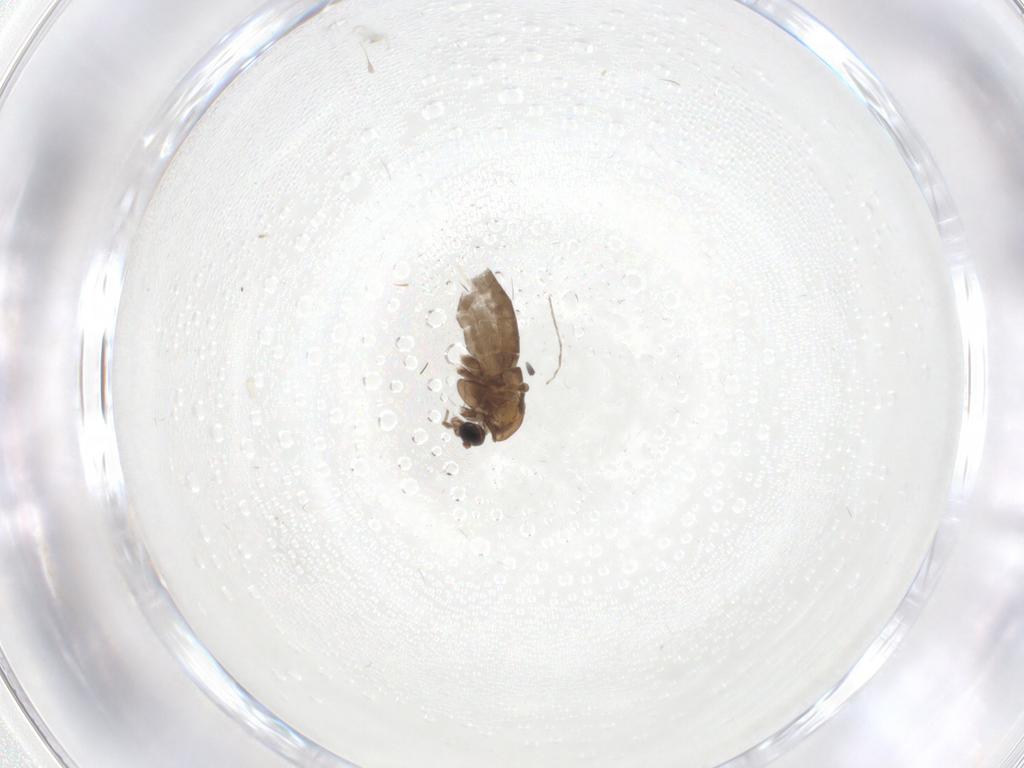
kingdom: Animalia
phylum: Arthropoda
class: Insecta
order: Diptera
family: Chironomidae
